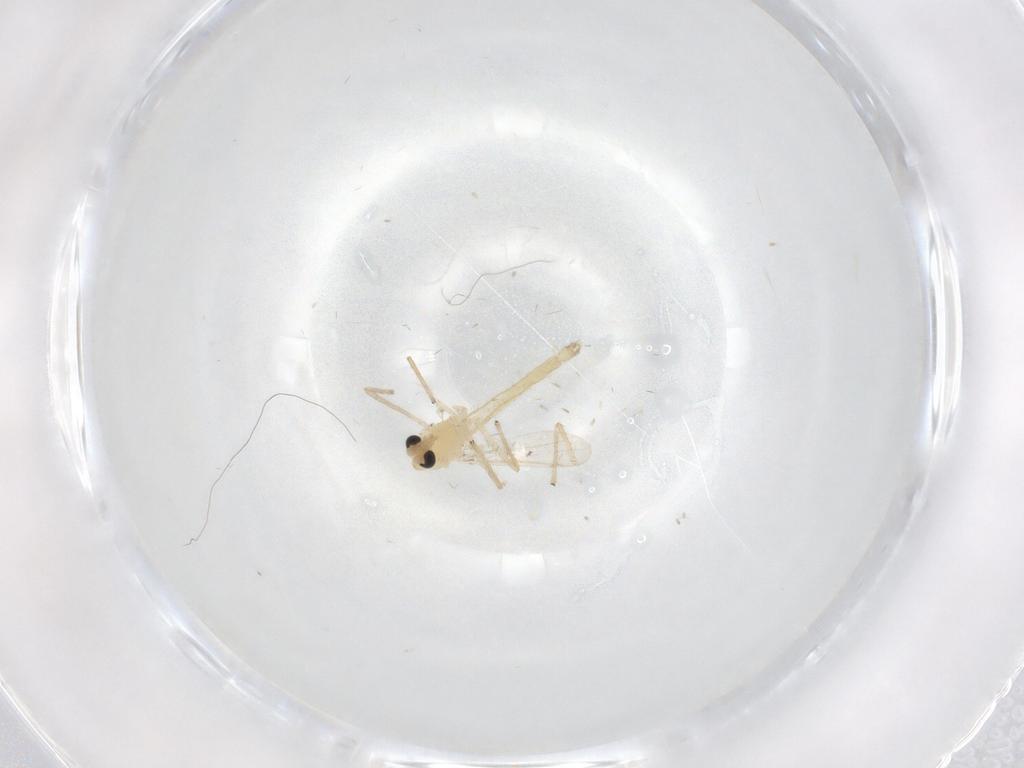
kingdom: Animalia
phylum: Arthropoda
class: Insecta
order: Diptera
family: Chironomidae
